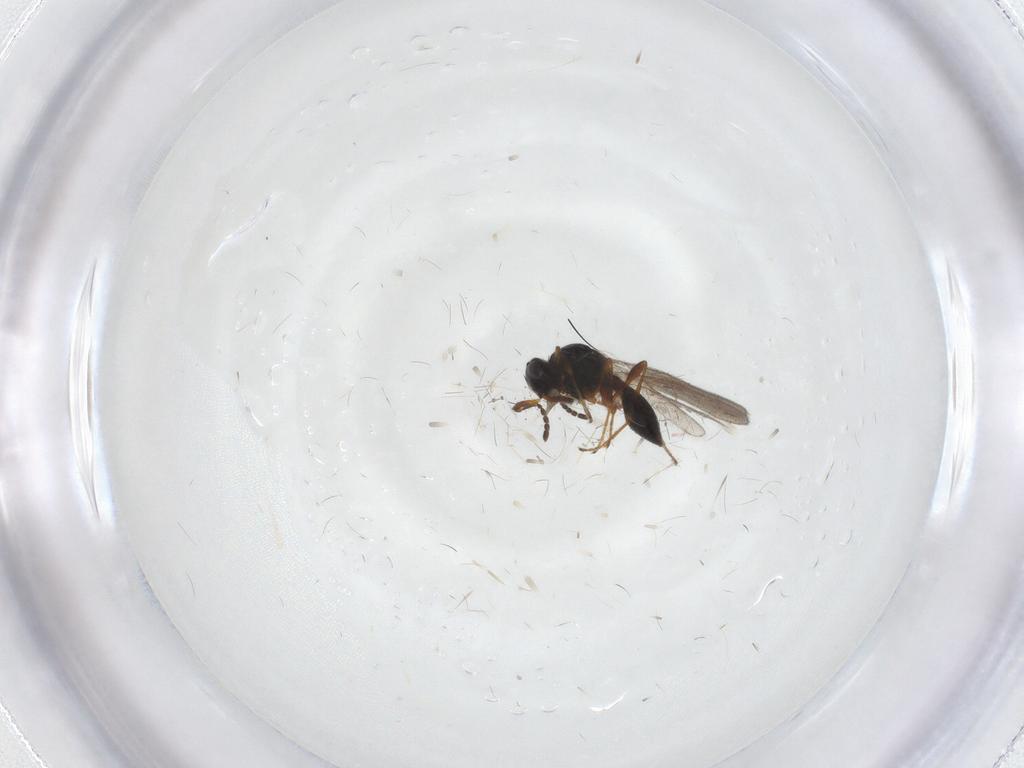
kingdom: Animalia
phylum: Arthropoda
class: Insecta
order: Hymenoptera
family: Platygastridae
